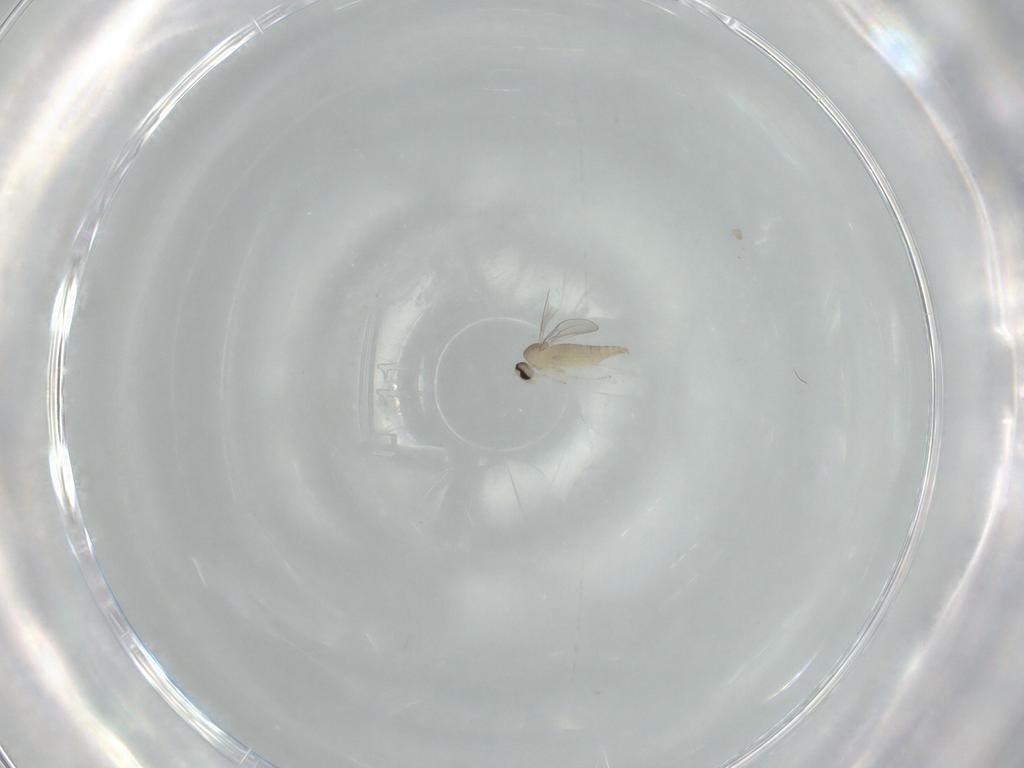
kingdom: Animalia
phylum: Arthropoda
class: Insecta
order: Diptera
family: Cecidomyiidae
